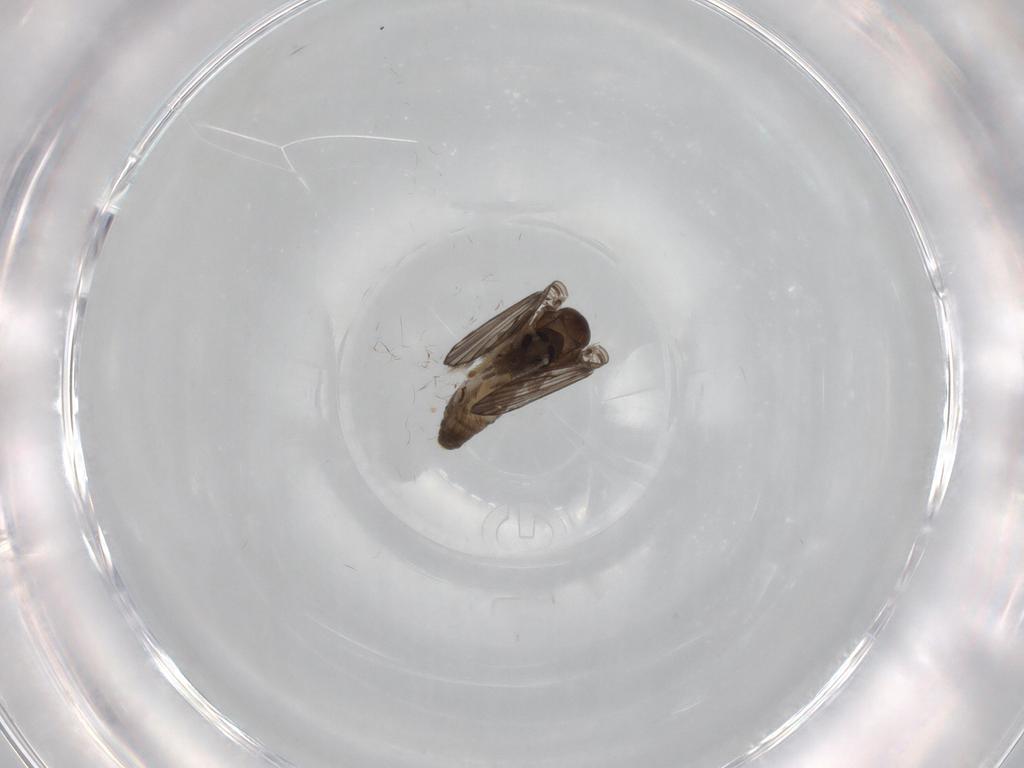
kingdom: Animalia
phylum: Arthropoda
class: Insecta
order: Diptera
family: Psychodidae
